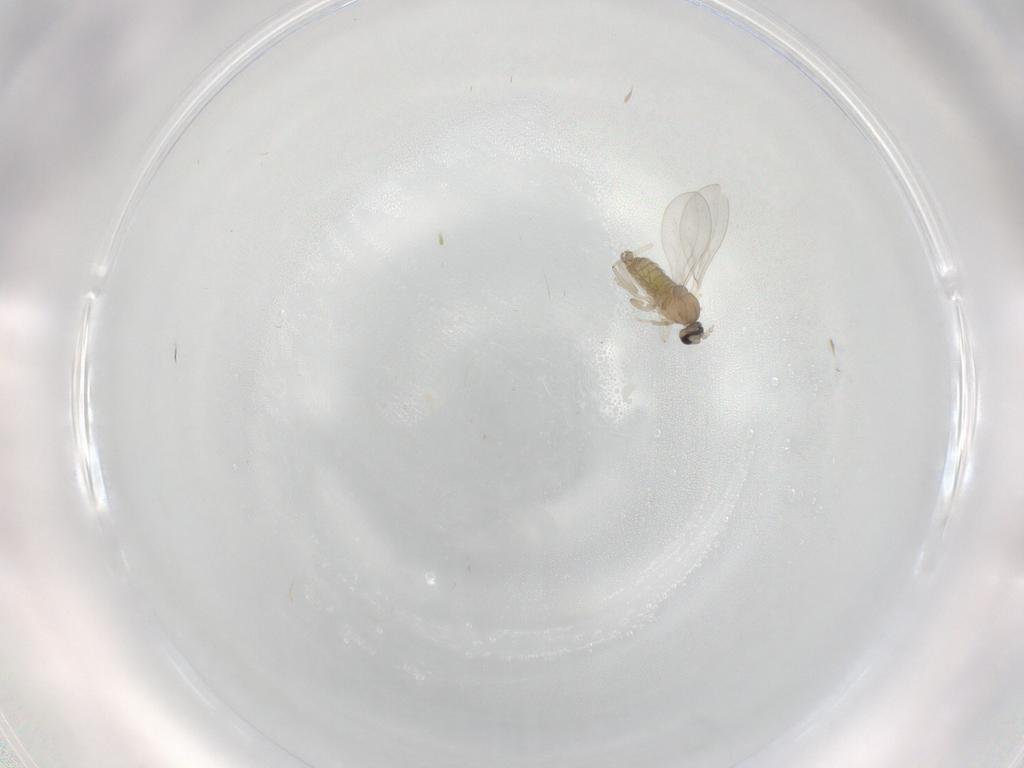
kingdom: Animalia
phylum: Arthropoda
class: Insecta
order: Diptera
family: Cecidomyiidae
